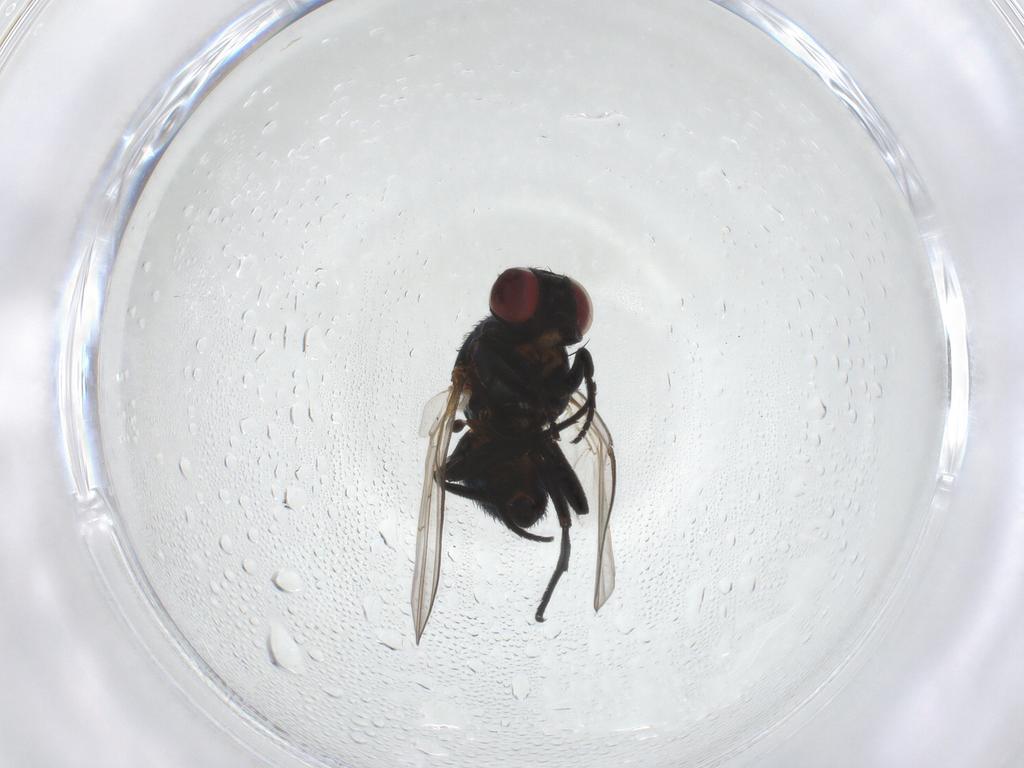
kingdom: Animalia
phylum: Arthropoda
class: Insecta
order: Diptera
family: Agromyzidae
